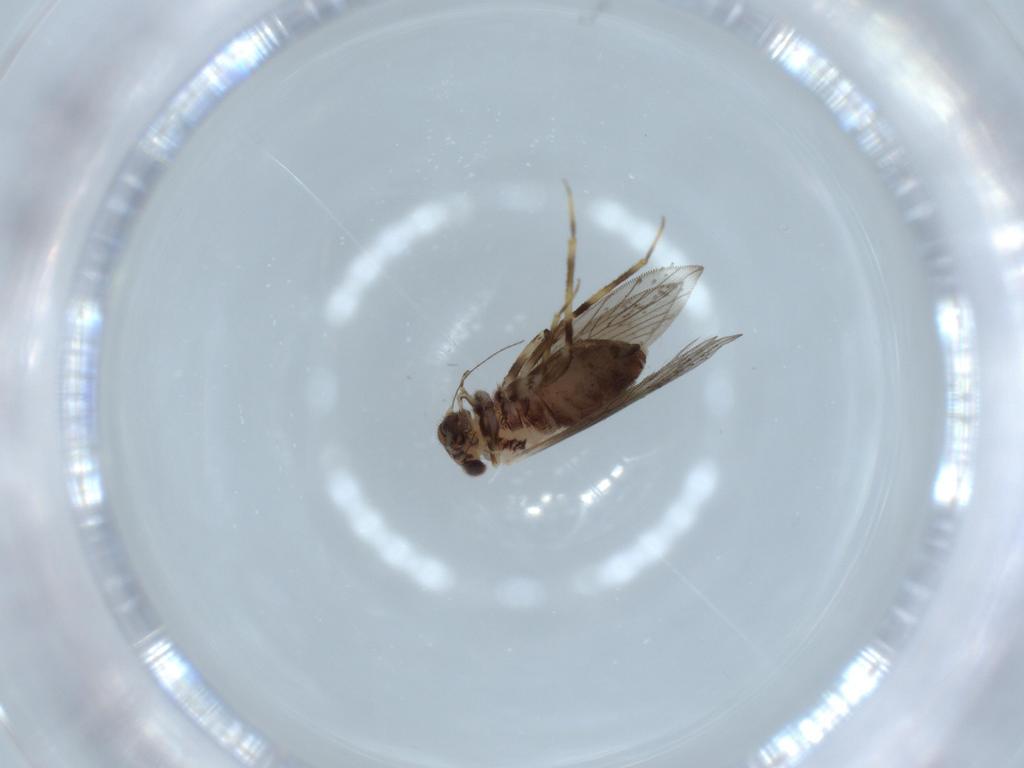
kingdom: Animalia
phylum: Arthropoda
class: Insecta
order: Psocodea
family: Lepidopsocidae
